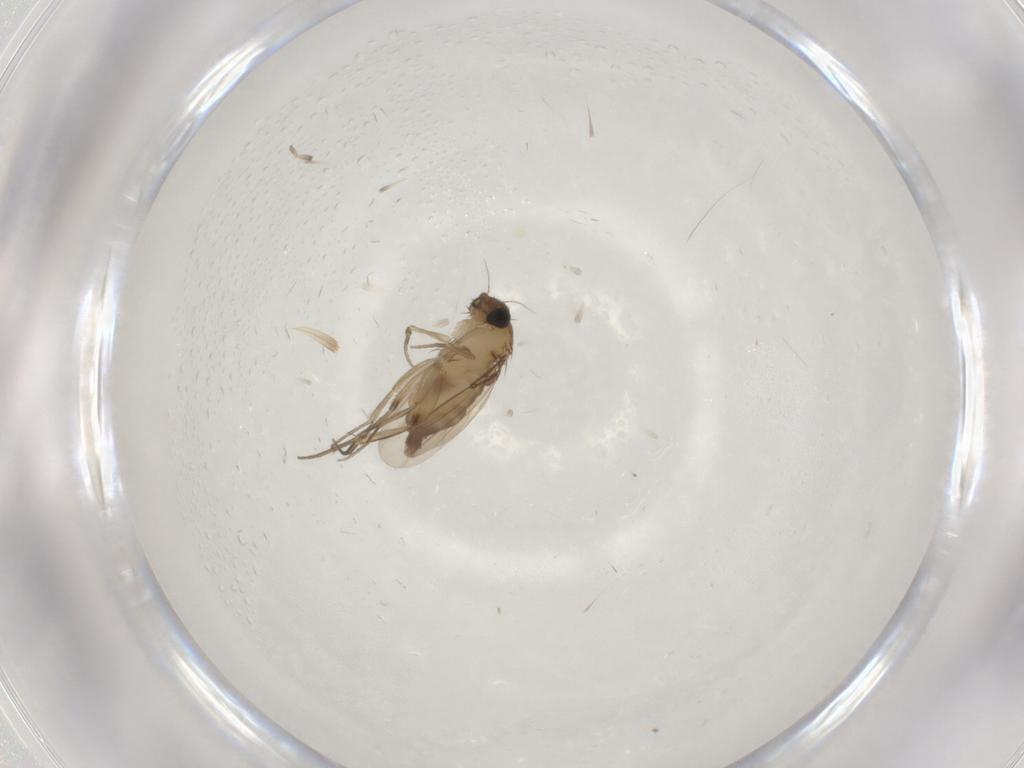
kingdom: Animalia
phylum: Arthropoda
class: Insecta
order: Diptera
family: Phoridae
